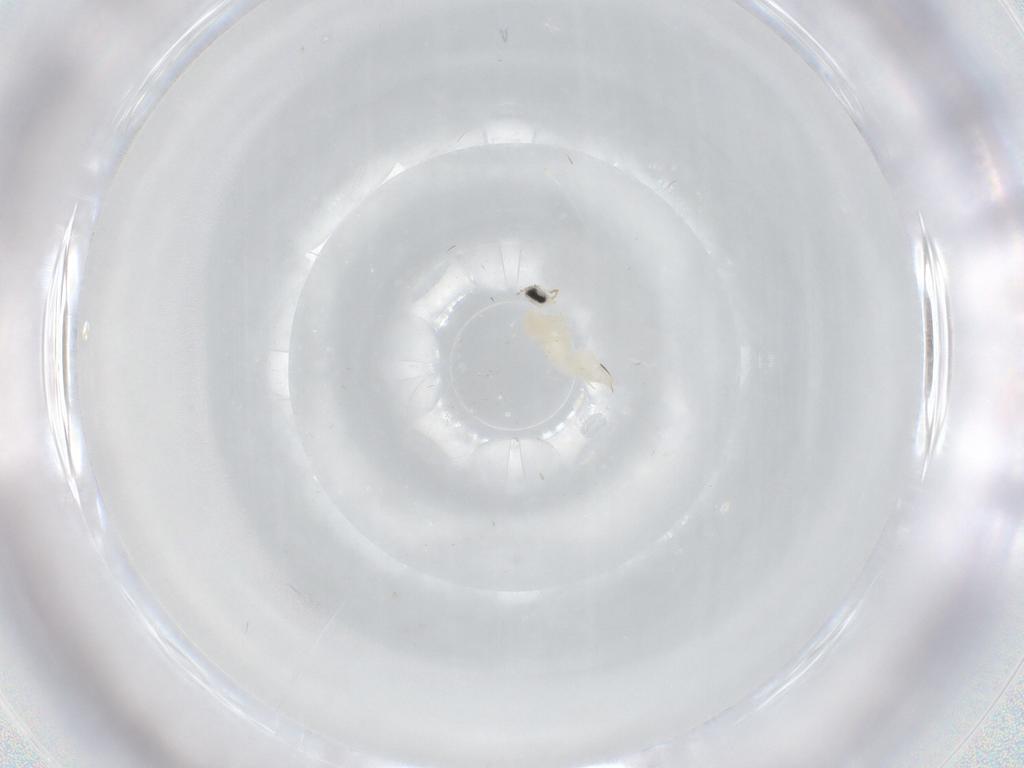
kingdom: Animalia
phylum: Arthropoda
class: Insecta
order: Diptera
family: Cecidomyiidae
